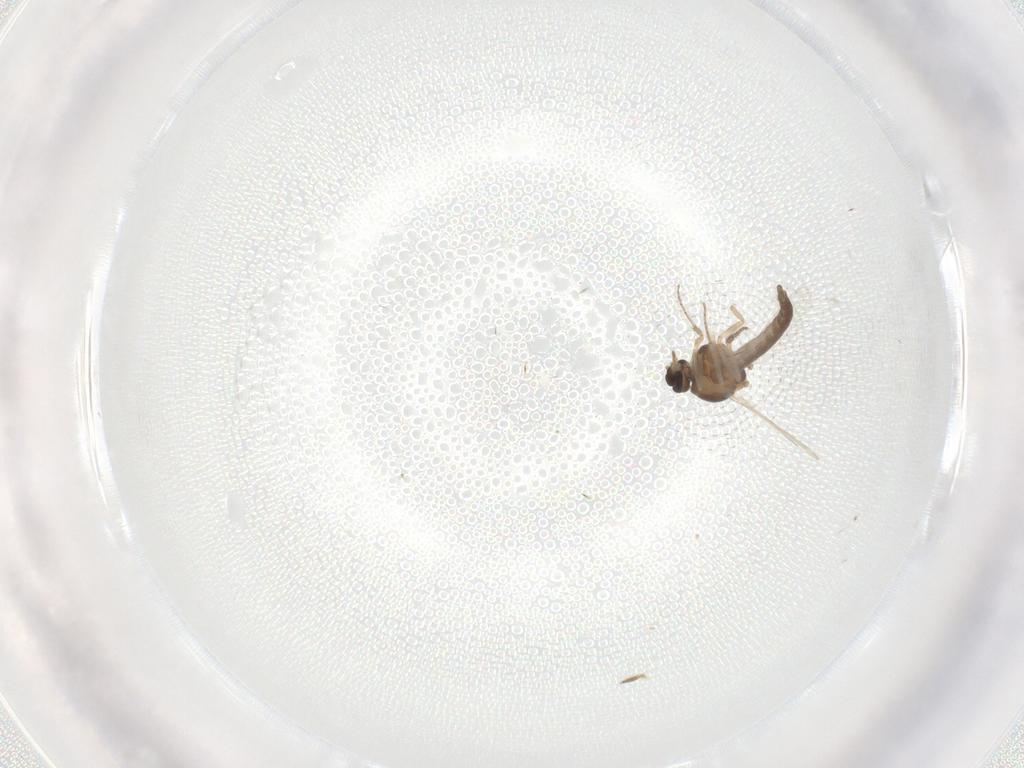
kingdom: Animalia
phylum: Arthropoda
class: Insecta
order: Diptera
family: Ceratopogonidae
